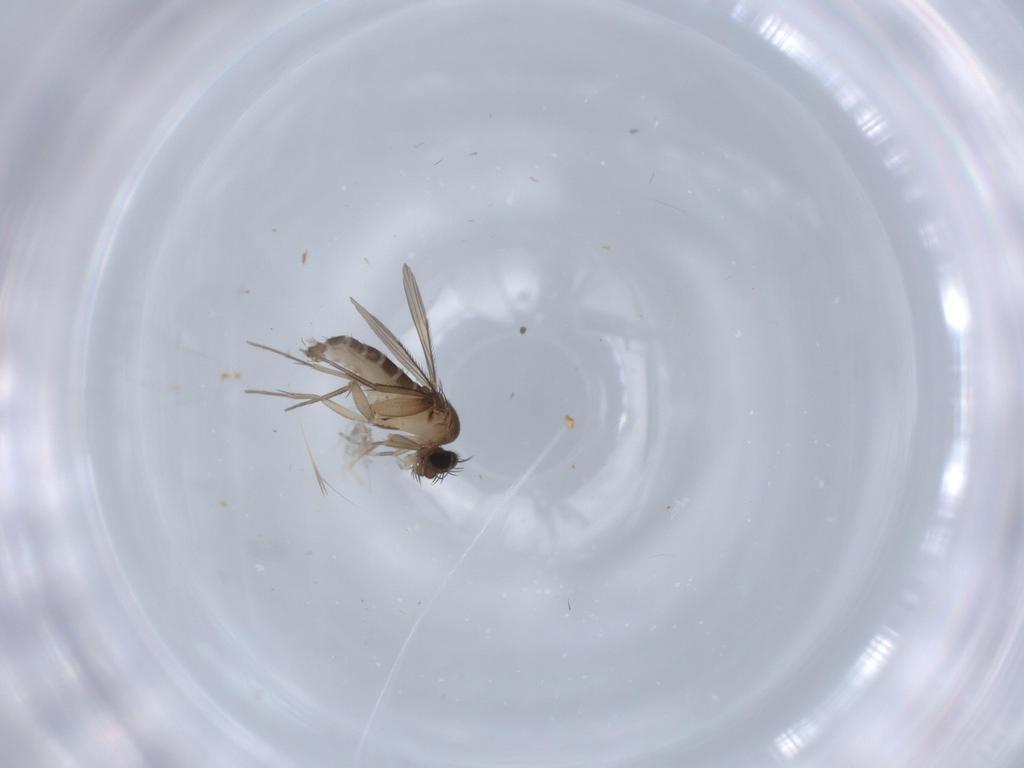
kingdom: Animalia
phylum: Arthropoda
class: Insecta
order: Diptera
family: Phoridae
